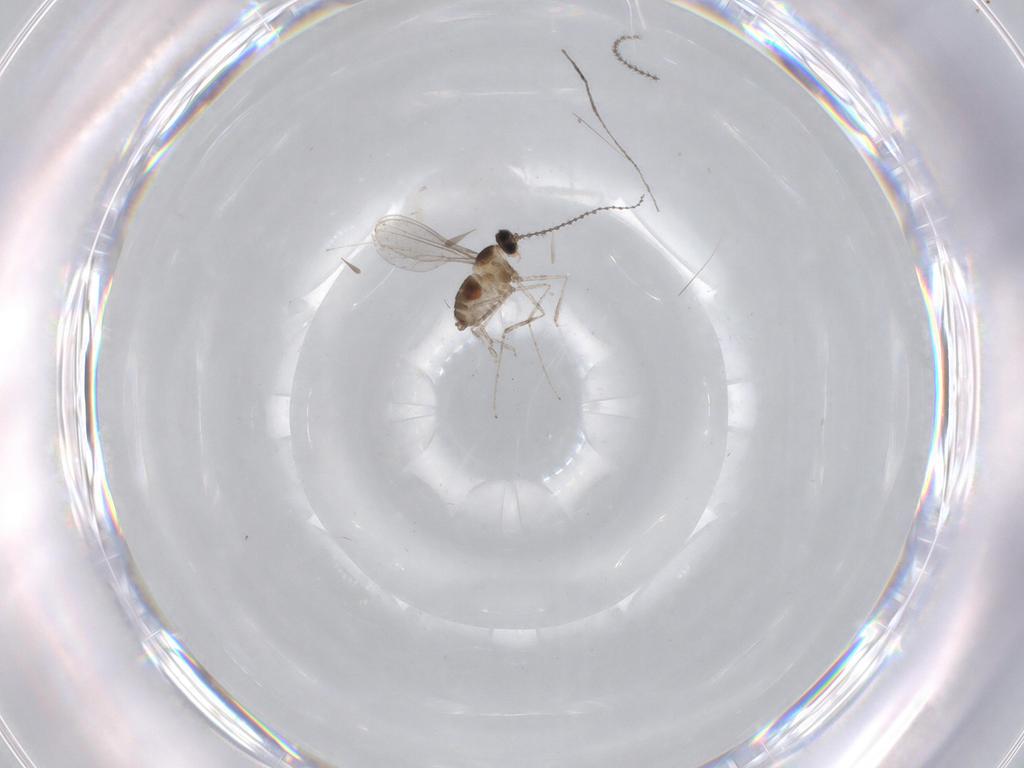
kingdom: Animalia
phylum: Arthropoda
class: Insecta
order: Diptera
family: Cecidomyiidae
